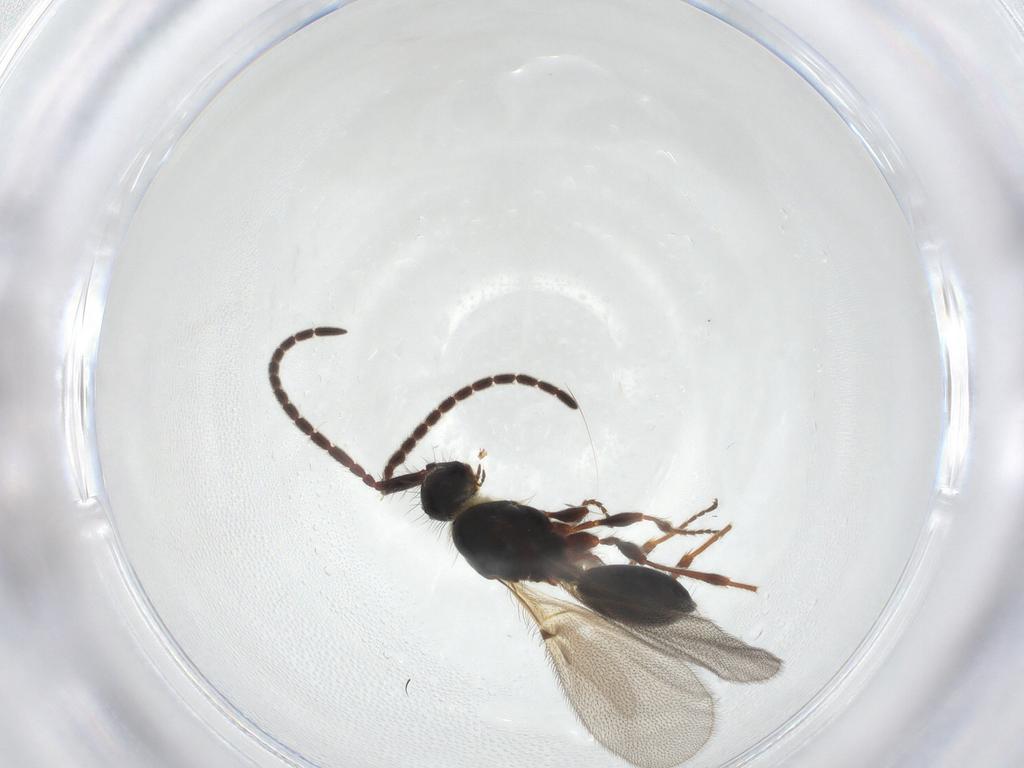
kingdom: Animalia
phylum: Arthropoda
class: Insecta
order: Hymenoptera
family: Diapriidae
